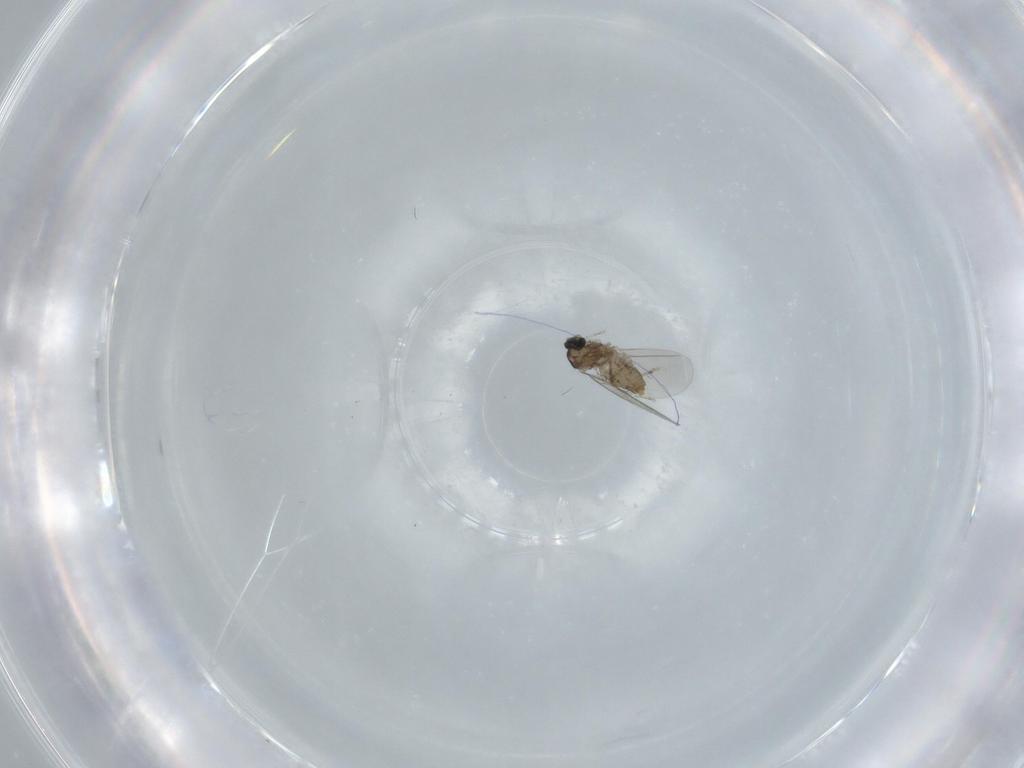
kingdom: Animalia
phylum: Arthropoda
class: Insecta
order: Diptera
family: Cecidomyiidae
